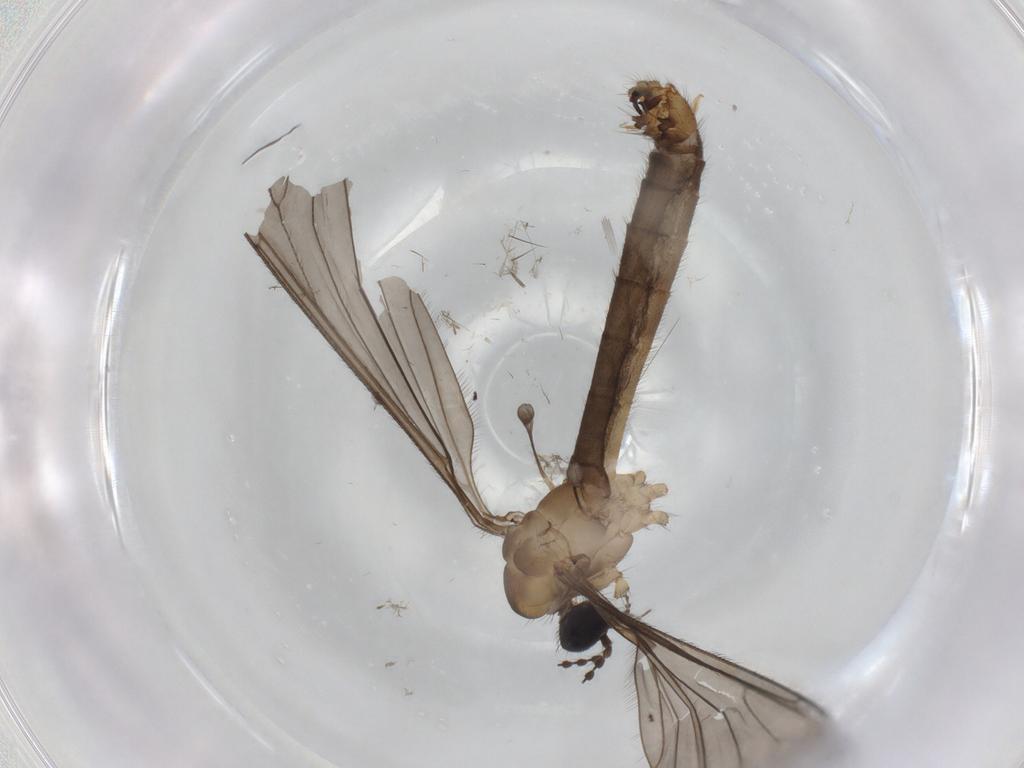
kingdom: Animalia
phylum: Arthropoda
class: Insecta
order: Diptera
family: Cecidomyiidae
